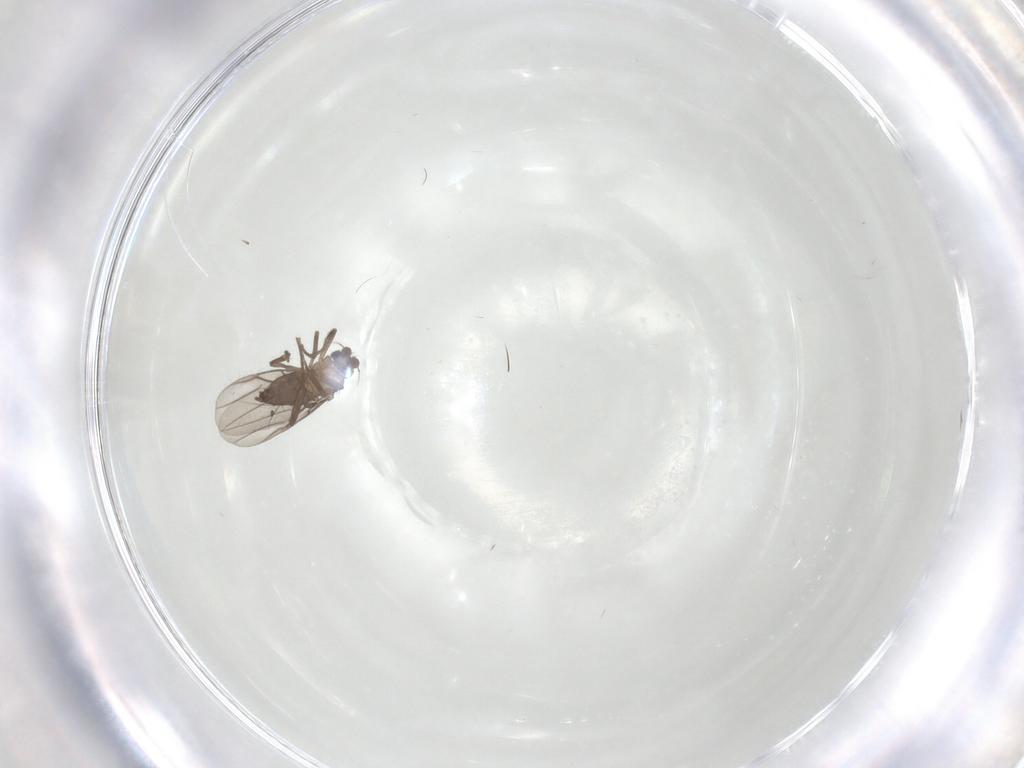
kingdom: Animalia
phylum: Arthropoda
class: Insecta
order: Diptera
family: Phoridae
